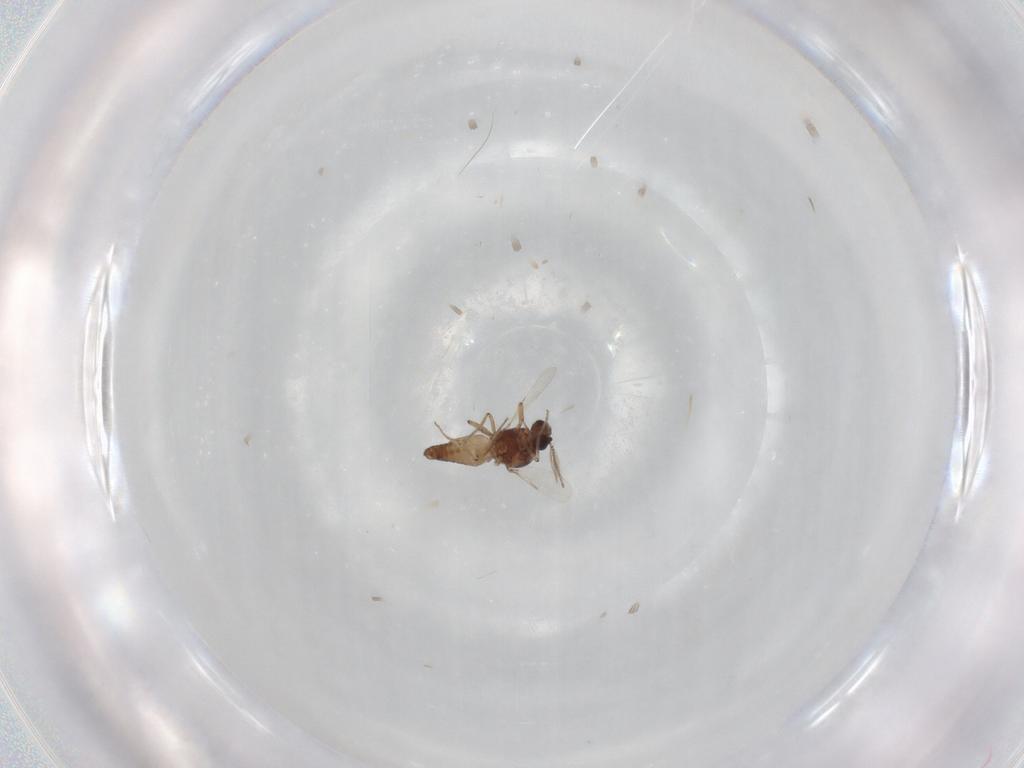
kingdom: Animalia
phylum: Arthropoda
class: Insecta
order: Diptera
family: Ceratopogonidae
